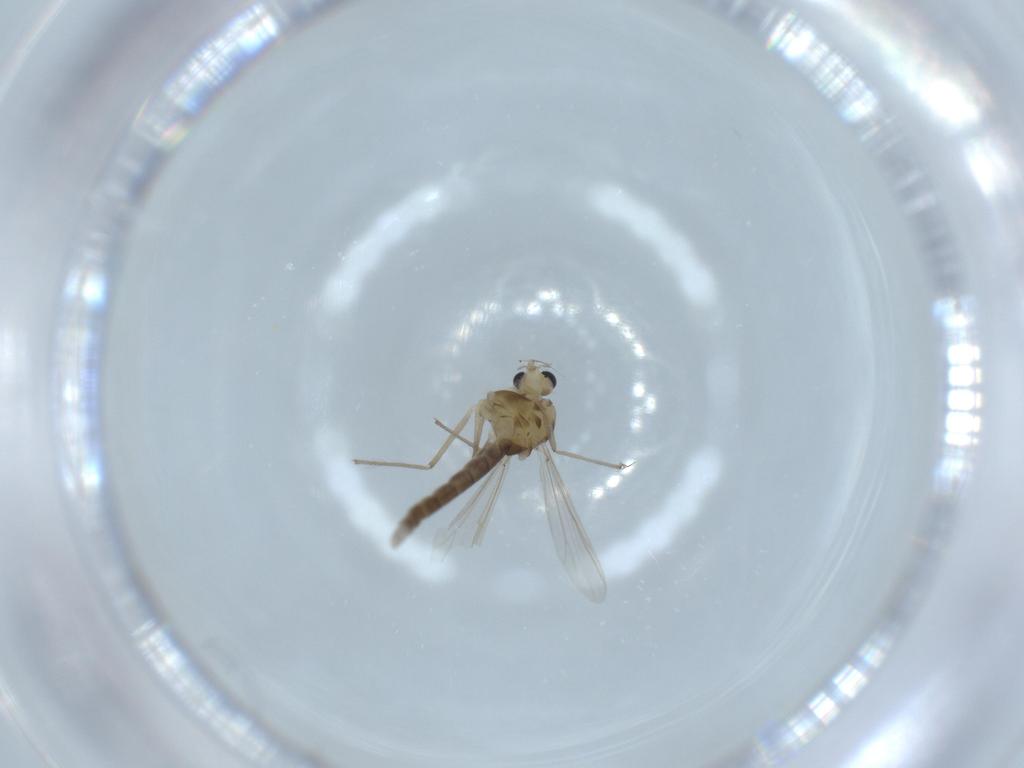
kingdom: Animalia
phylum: Arthropoda
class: Insecta
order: Diptera
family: Chironomidae
